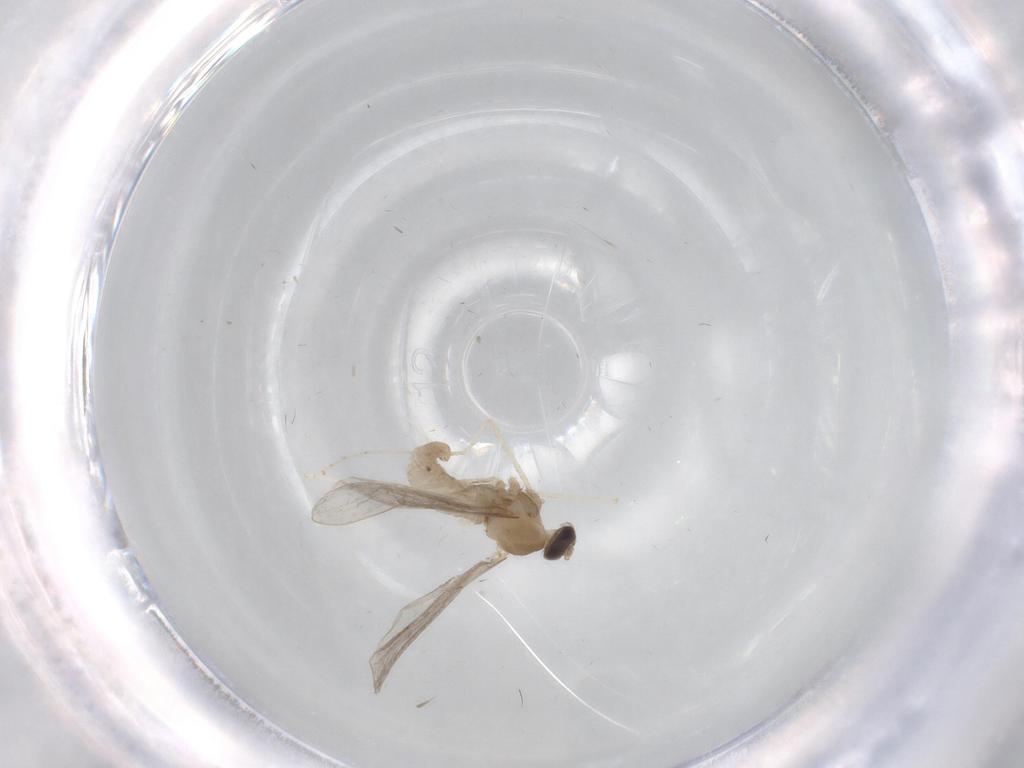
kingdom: Animalia
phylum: Arthropoda
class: Insecta
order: Diptera
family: Cecidomyiidae
